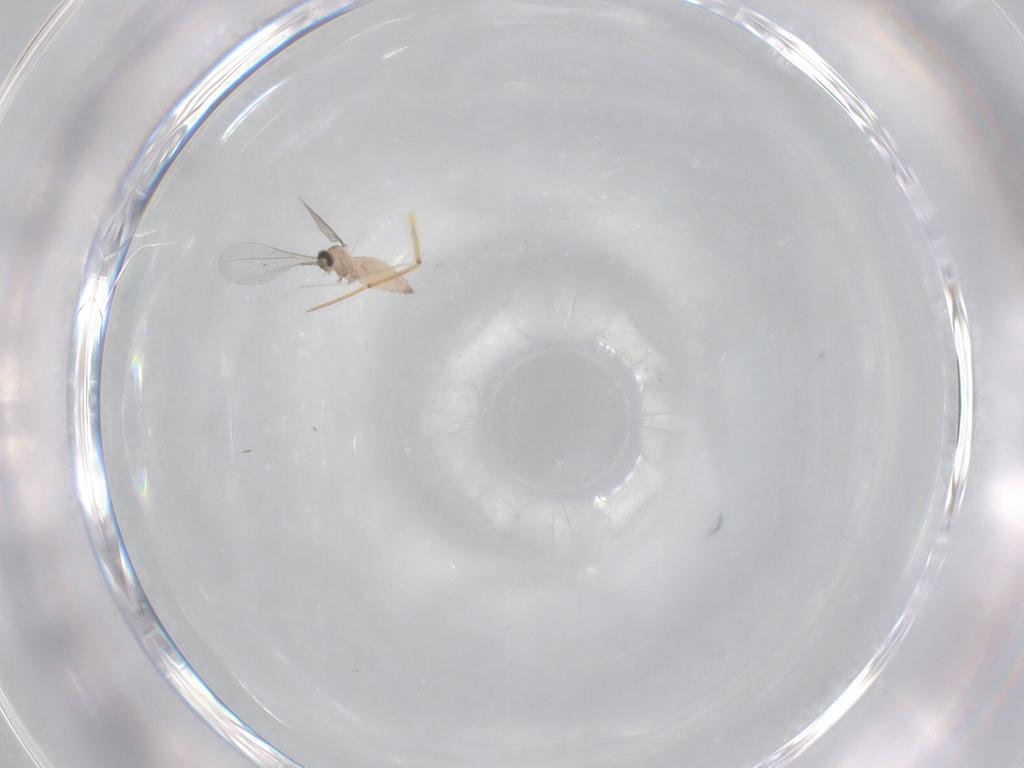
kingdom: Animalia
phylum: Arthropoda
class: Insecta
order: Diptera
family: Cecidomyiidae
